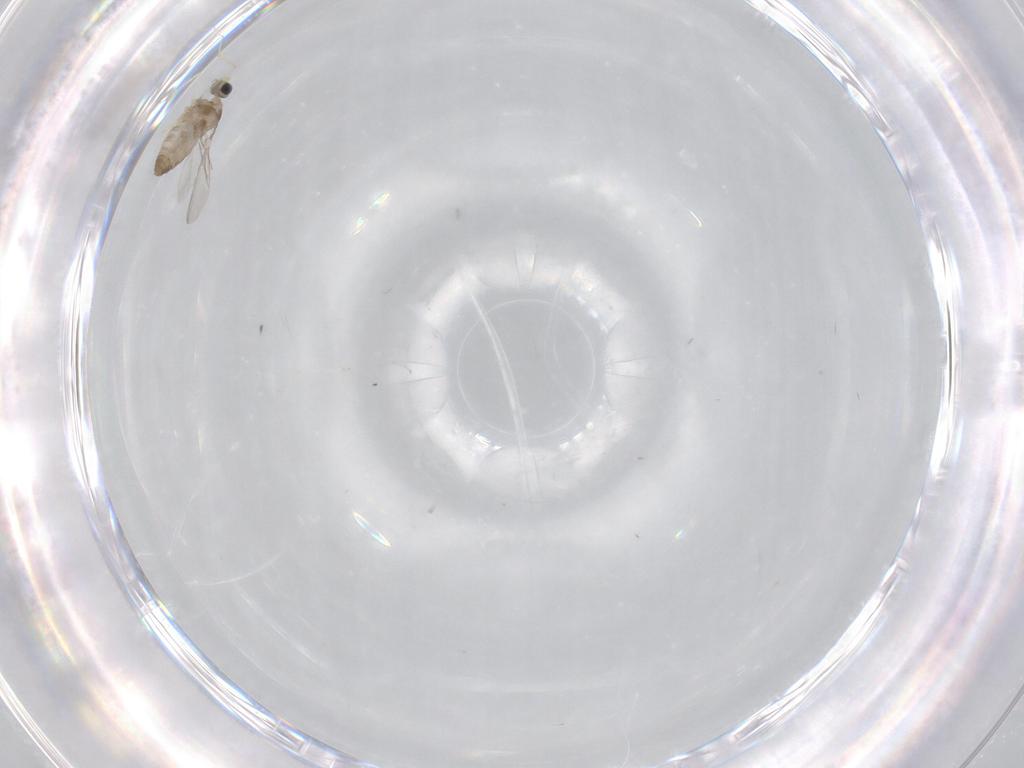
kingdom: Animalia
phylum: Arthropoda
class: Insecta
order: Diptera
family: Cecidomyiidae
